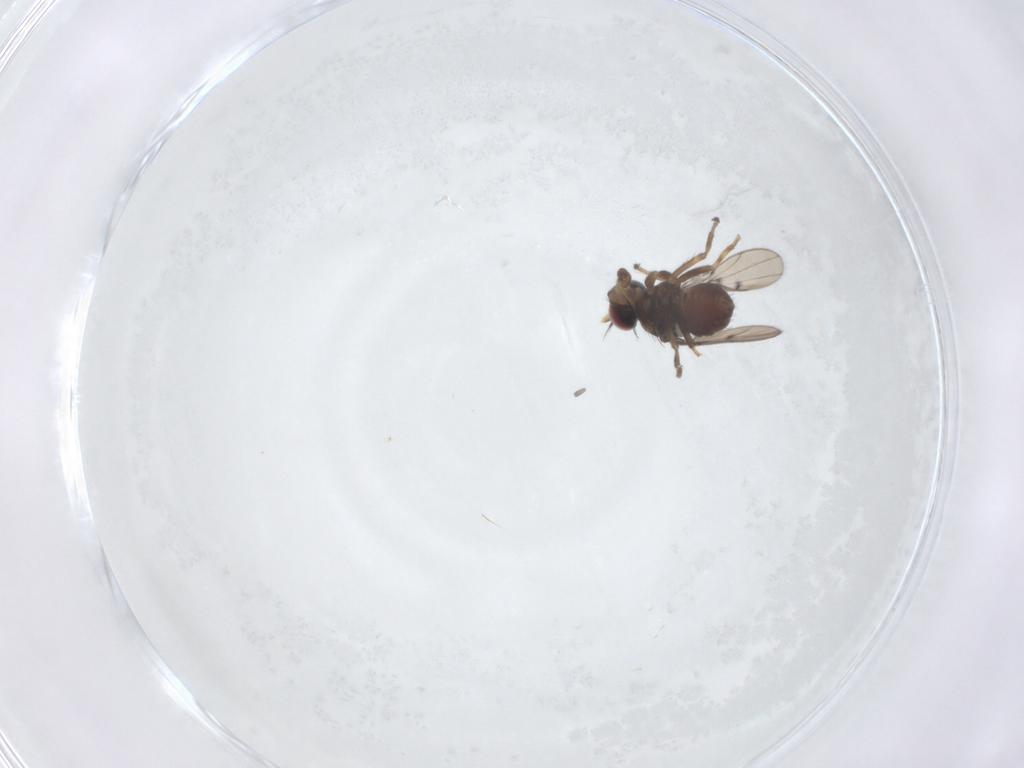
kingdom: Animalia
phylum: Arthropoda
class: Insecta
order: Diptera
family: Ephydridae
